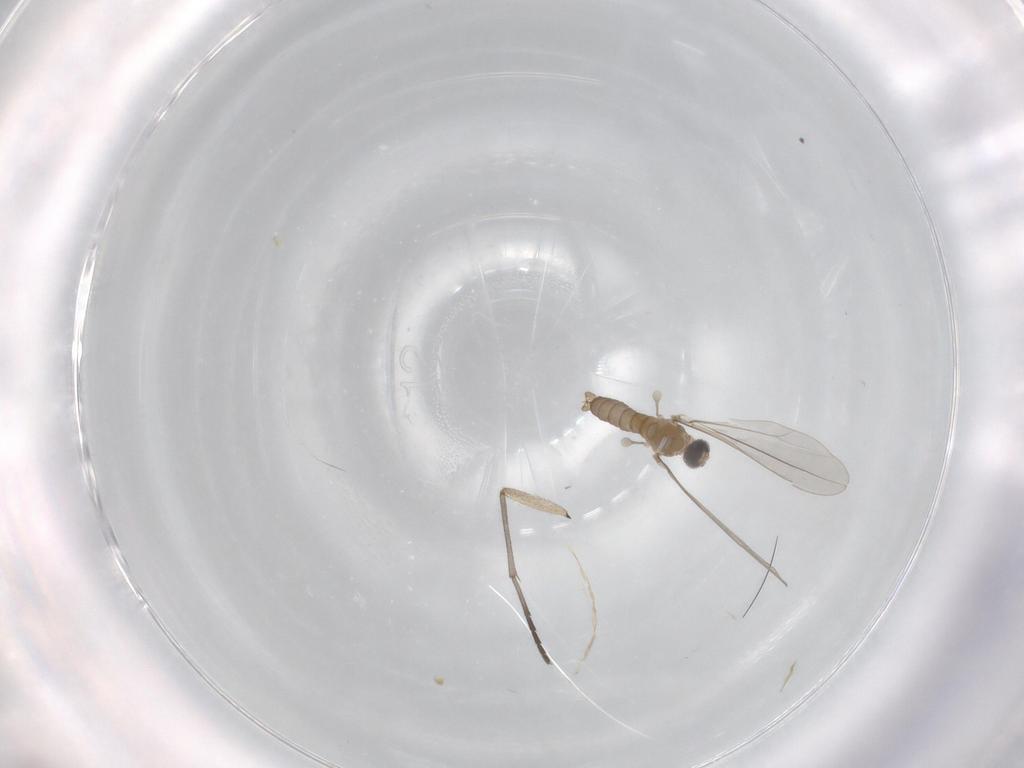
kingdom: Animalia
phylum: Arthropoda
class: Insecta
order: Diptera
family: Cecidomyiidae
